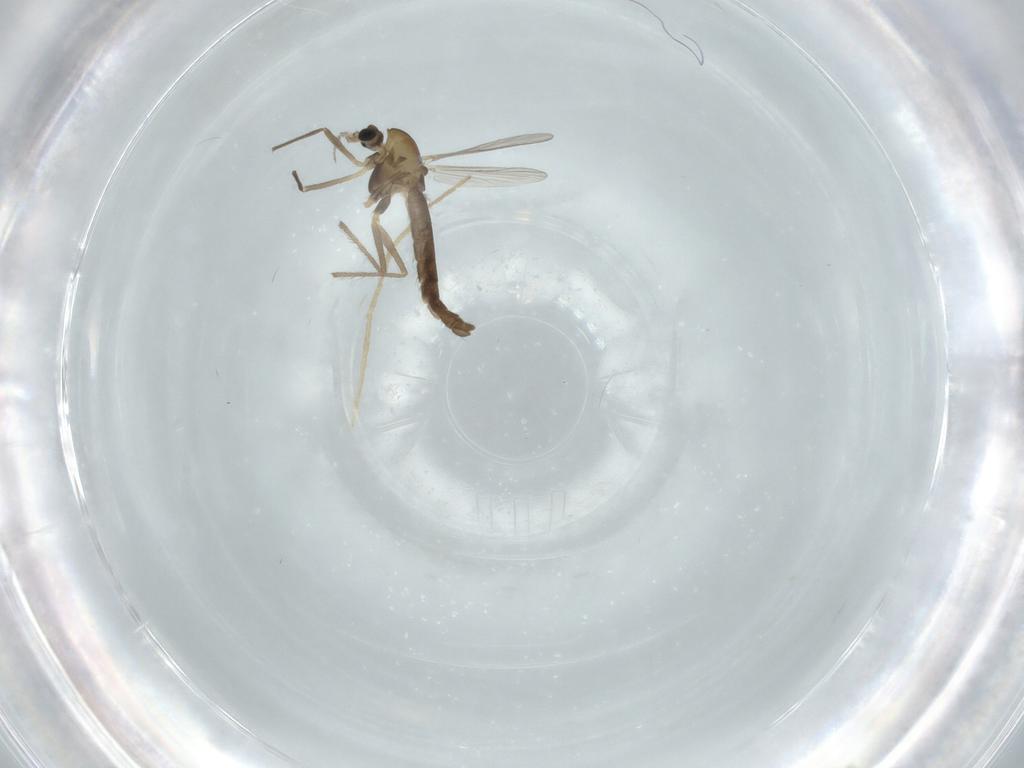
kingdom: Animalia
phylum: Arthropoda
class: Insecta
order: Diptera
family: Chironomidae
